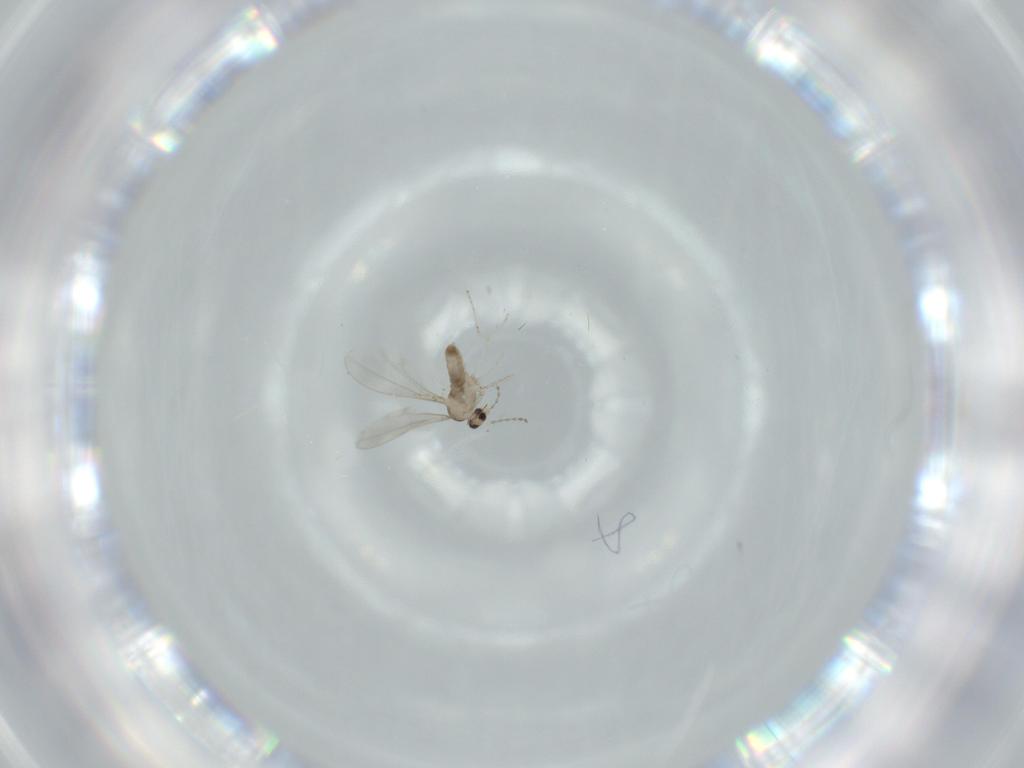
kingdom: Animalia
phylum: Arthropoda
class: Insecta
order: Diptera
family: Cecidomyiidae
